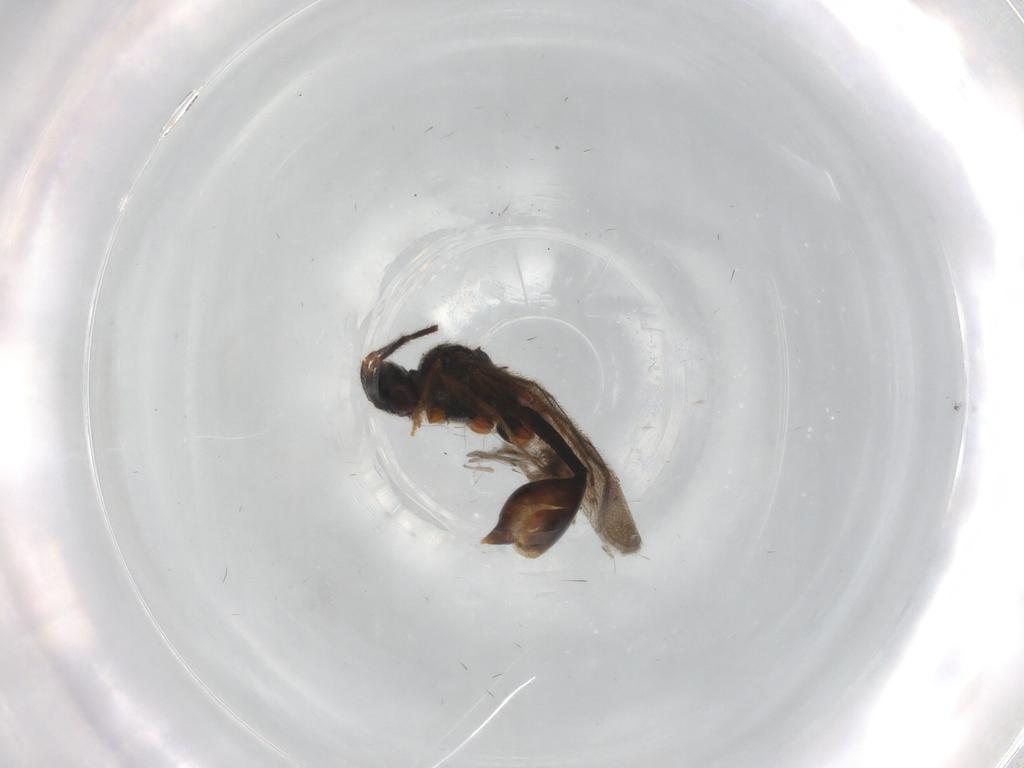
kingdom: Animalia
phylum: Arthropoda
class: Insecta
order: Hymenoptera
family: Diapriidae
